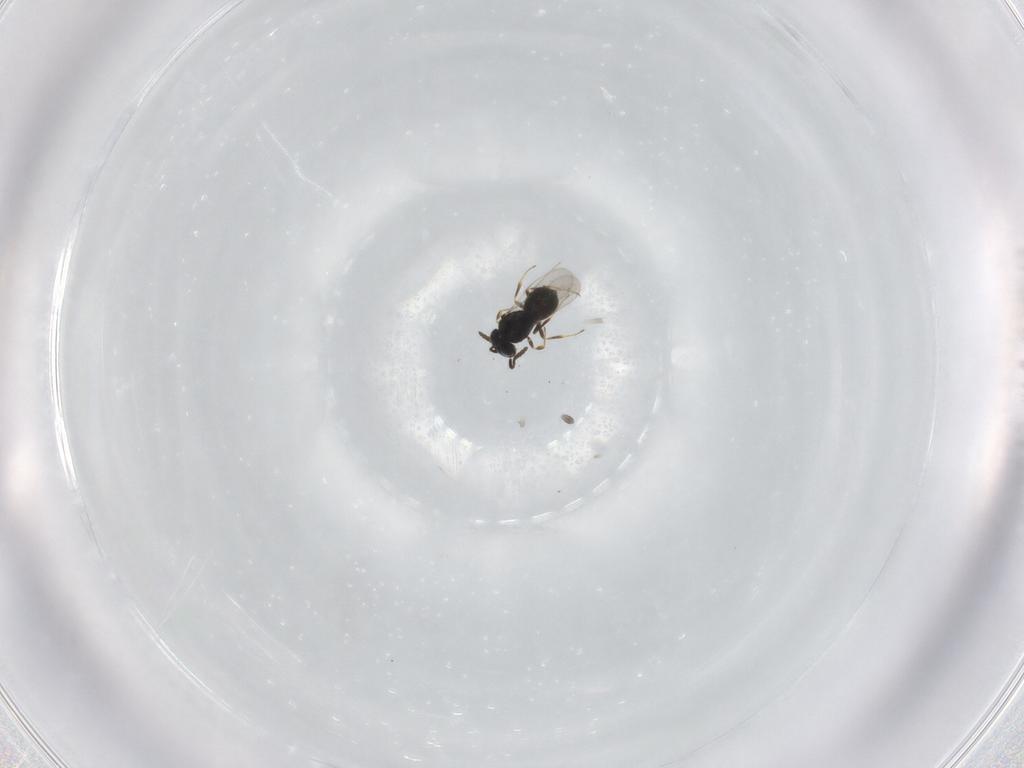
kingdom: Animalia
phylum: Arthropoda
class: Insecta
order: Hymenoptera
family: Scelionidae
